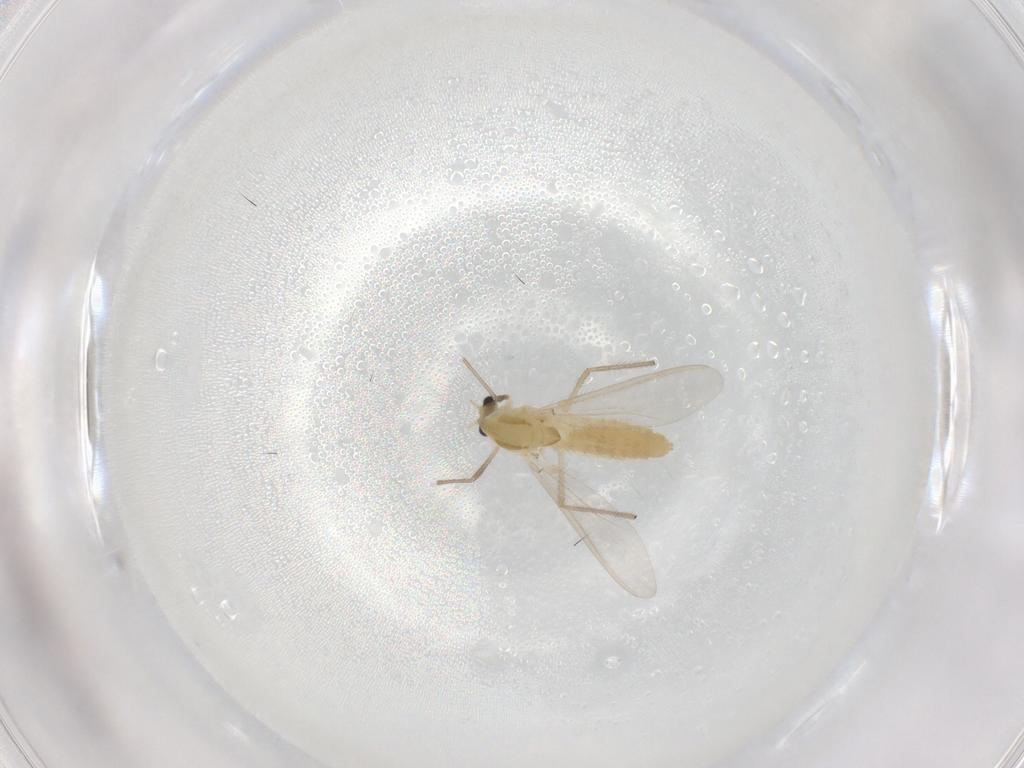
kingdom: Animalia
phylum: Arthropoda
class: Insecta
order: Diptera
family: Chironomidae
